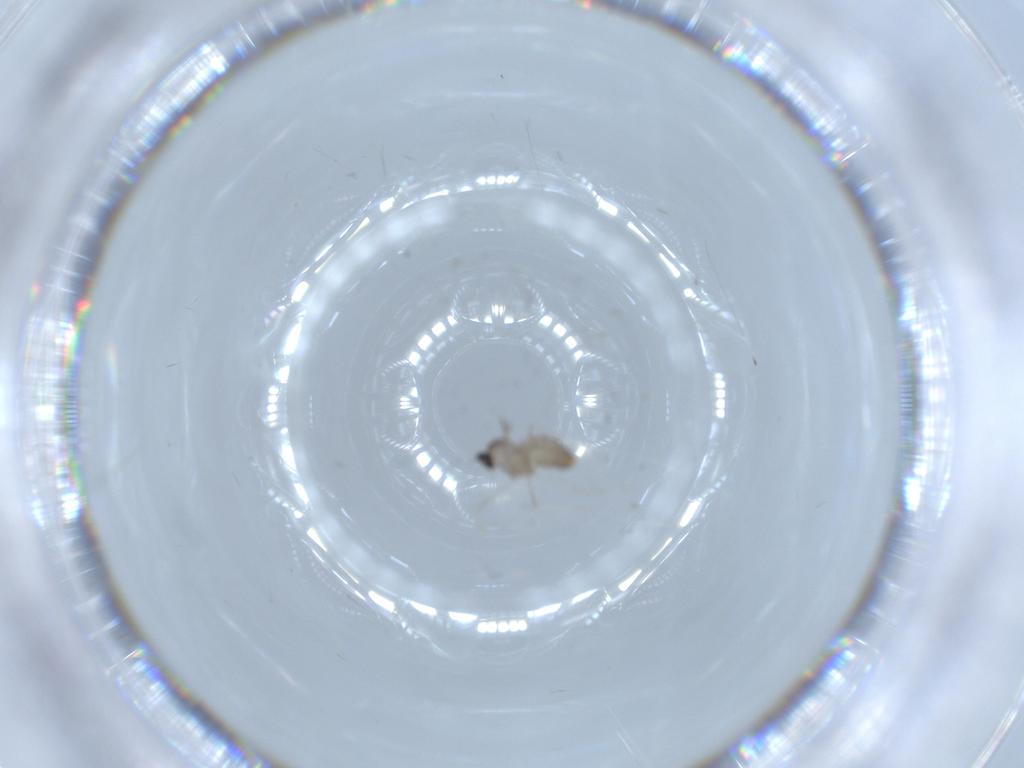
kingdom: Animalia
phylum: Arthropoda
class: Insecta
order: Diptera
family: Cecidomyiidae
